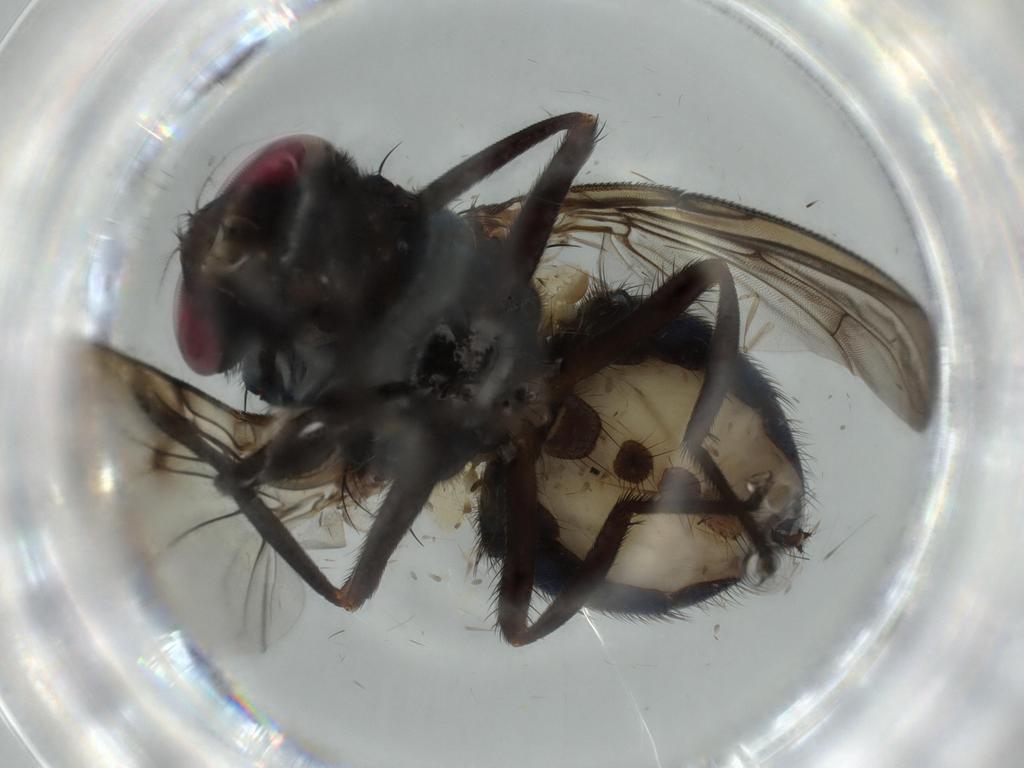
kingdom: Animalia
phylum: Arthropoda
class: Insecta
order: Diptera
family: Muscidae
